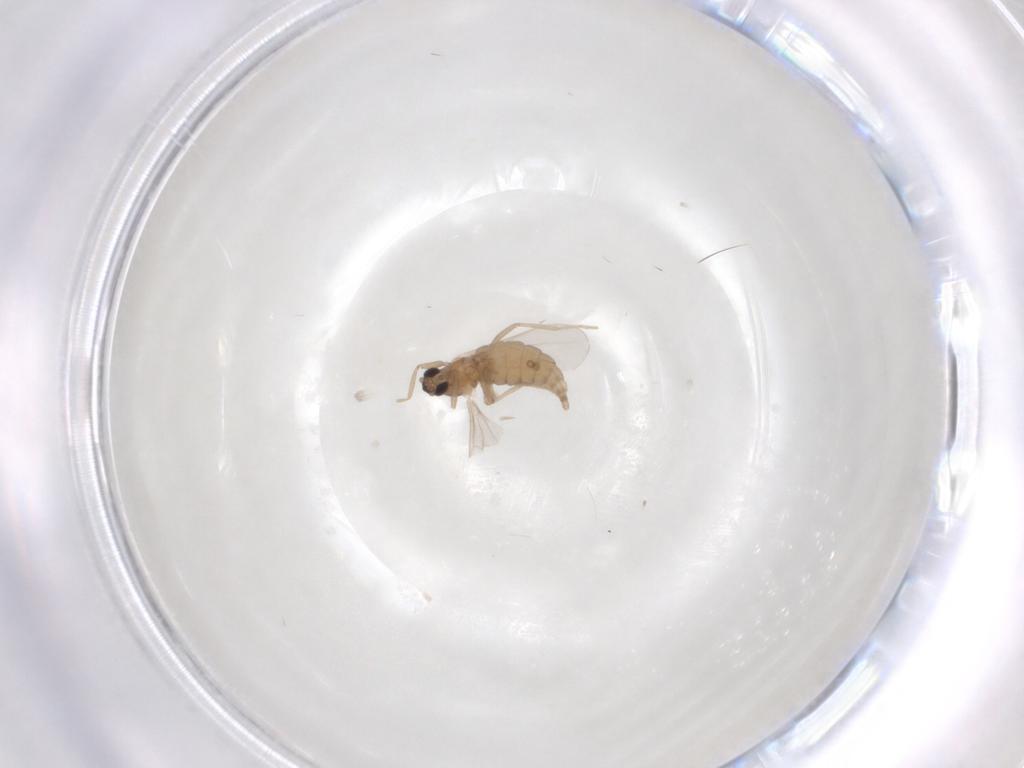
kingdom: Animalia
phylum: Arthropoda
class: Insecta
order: Diptera
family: Cecidomyiidae
